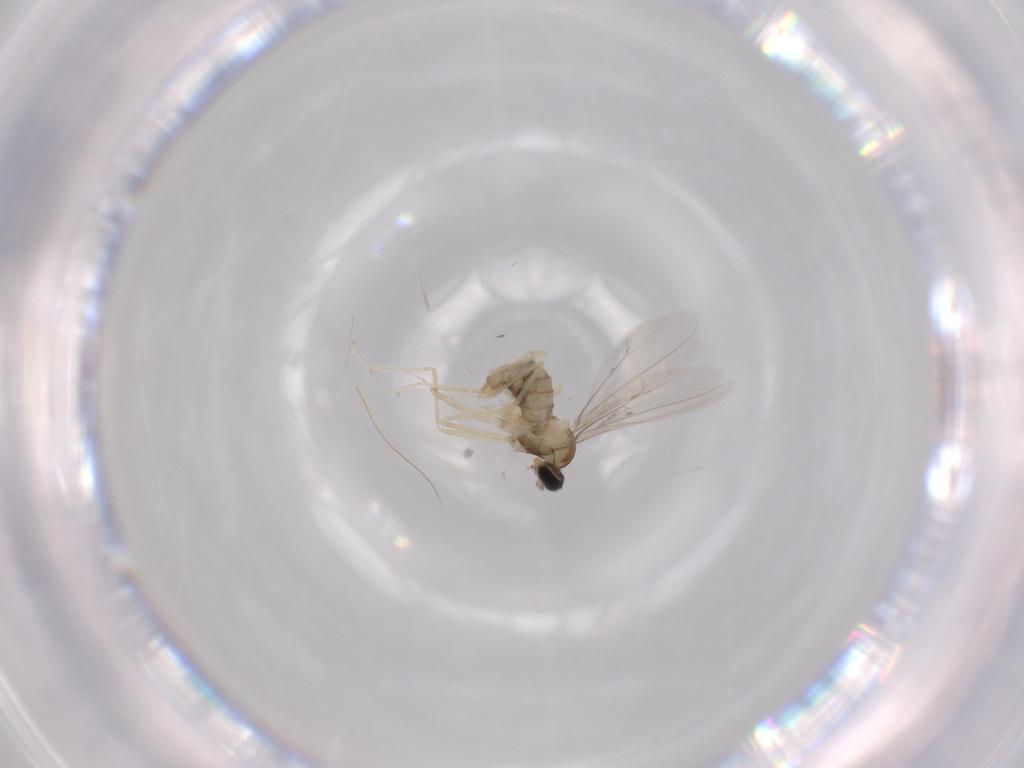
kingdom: Animalia
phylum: Arthropoda
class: Insecta
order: Diptera
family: Cecidomyiidae
